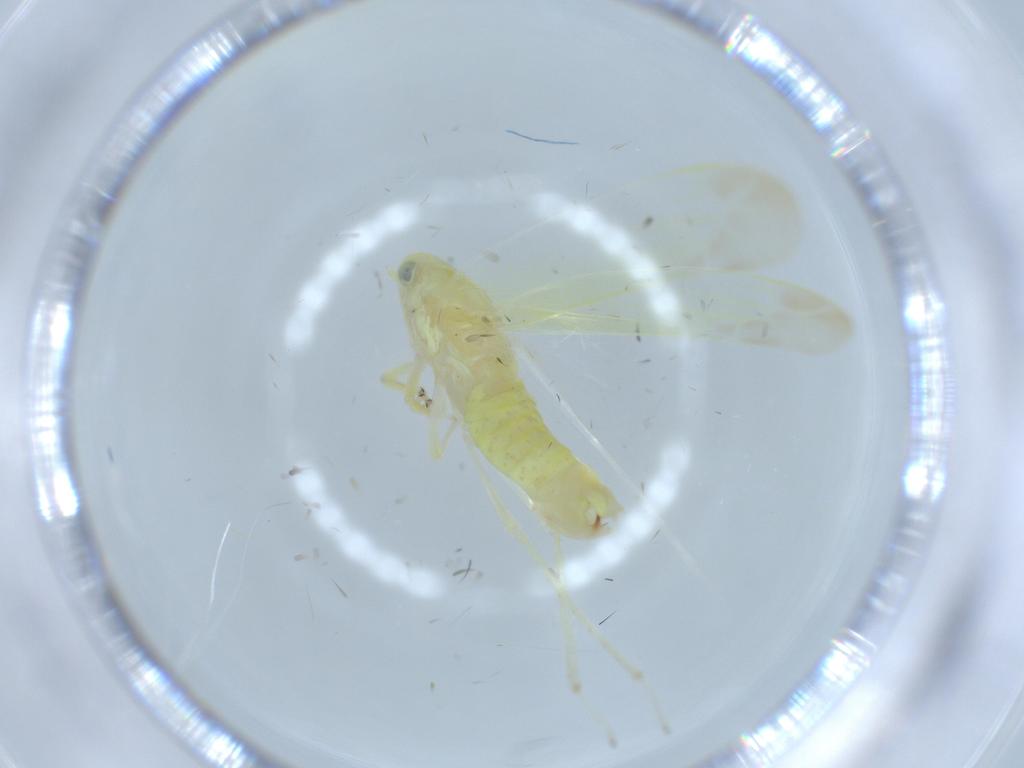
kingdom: Animalia
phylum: Arthropoda
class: Insecta
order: Hemiptera
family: Cicadellidae
